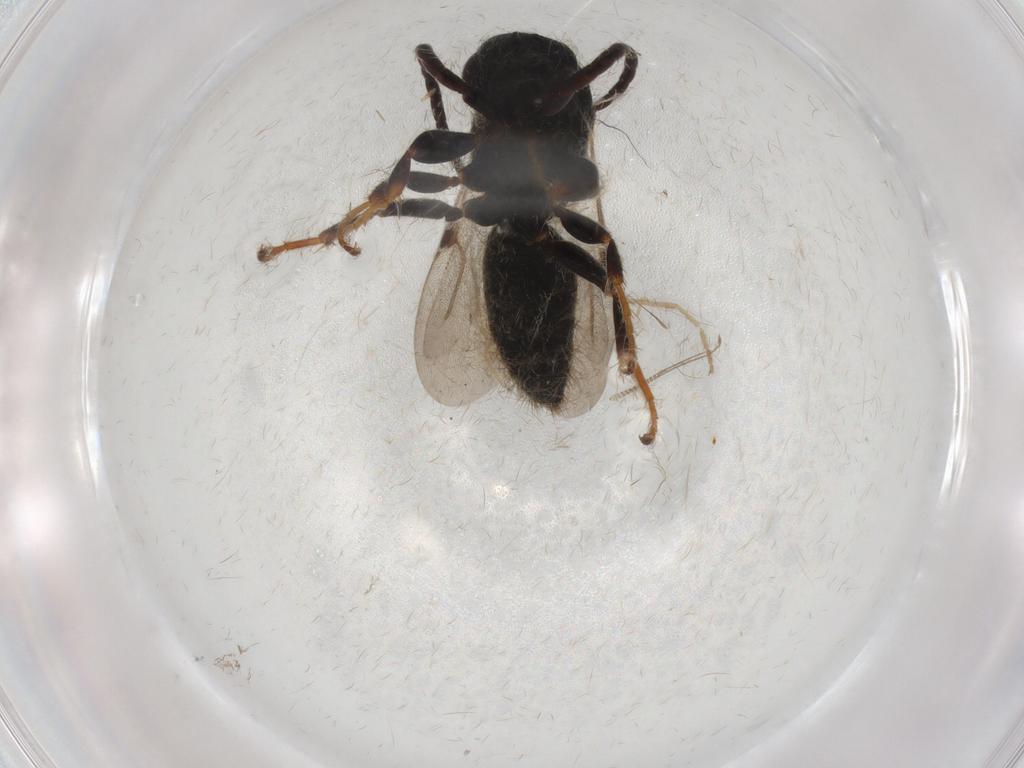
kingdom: Animalia
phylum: Arthropoda
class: Insecta
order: Hymenoptera
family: Bethylidae
